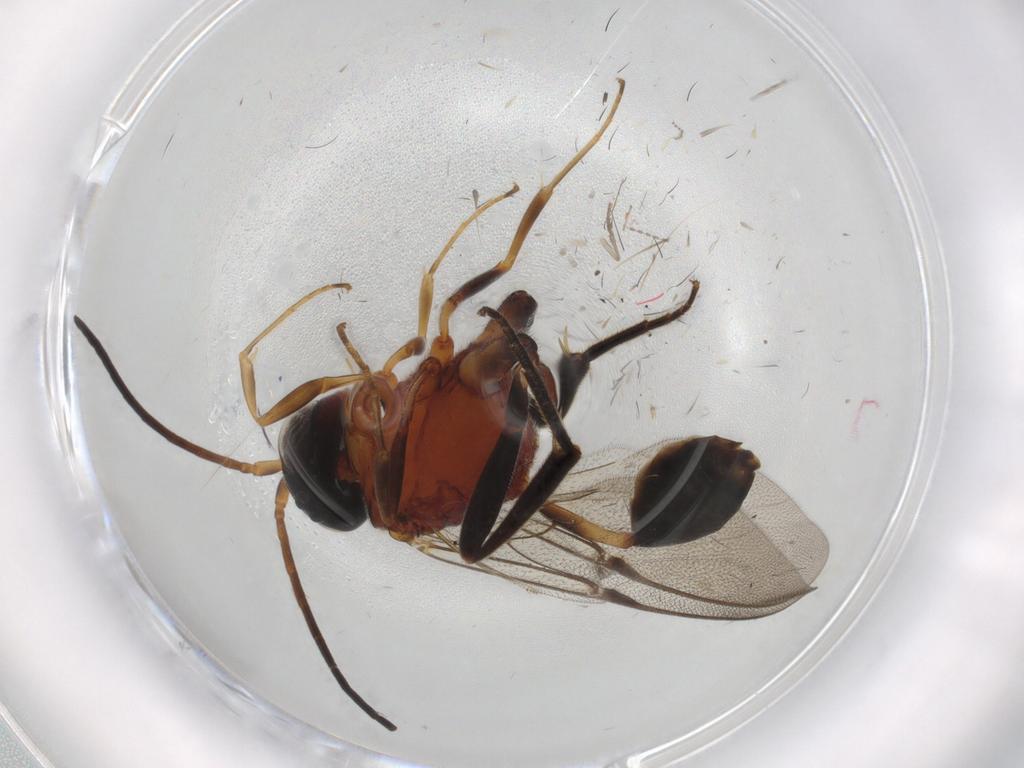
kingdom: Animalia
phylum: Arthropoda
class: Insecta
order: Hymenoptera
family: Evaniidae
